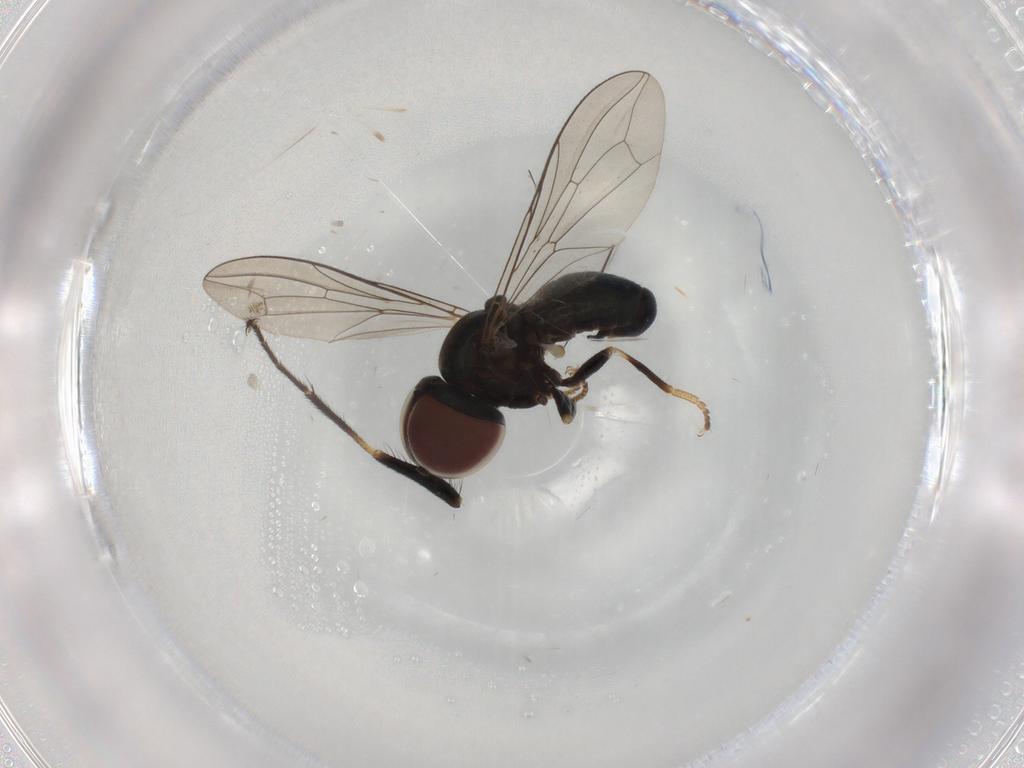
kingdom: Animalia
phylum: Arthropoda
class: Insecta
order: Diptera
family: Pipunculidae
